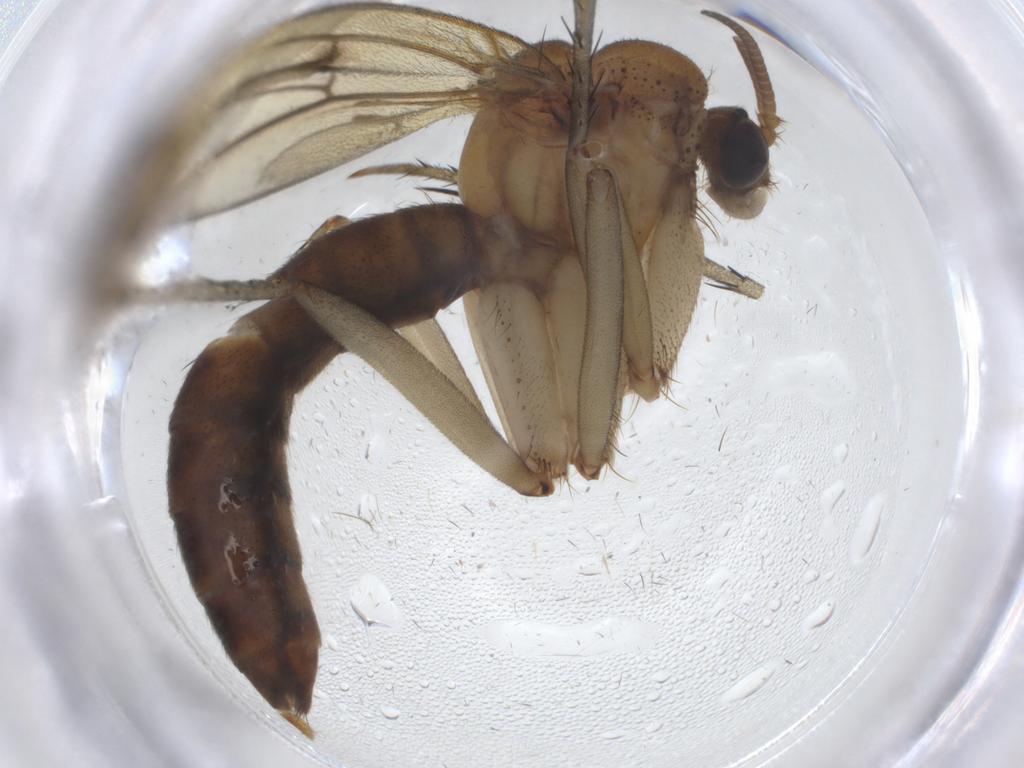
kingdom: Animalia
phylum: Arthropoda
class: Insecta
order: Diptera
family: Ditomyiidae
